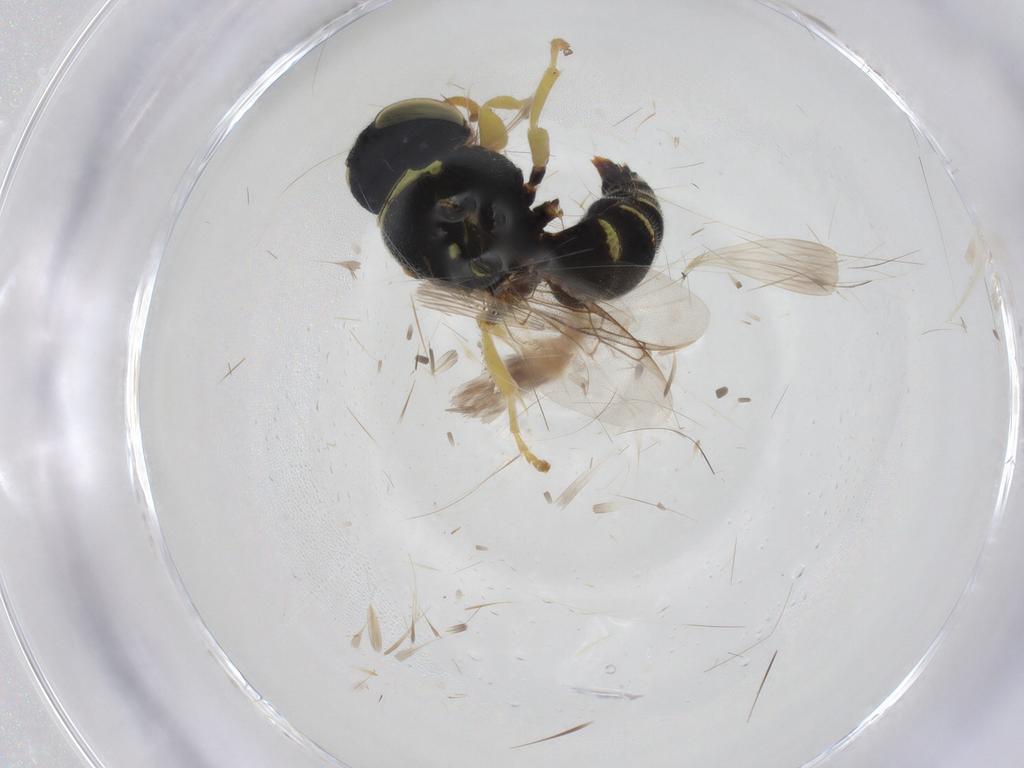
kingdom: Animalia
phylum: Arthropoda
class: Insecta
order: Hymenoptera
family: Crabronidae
